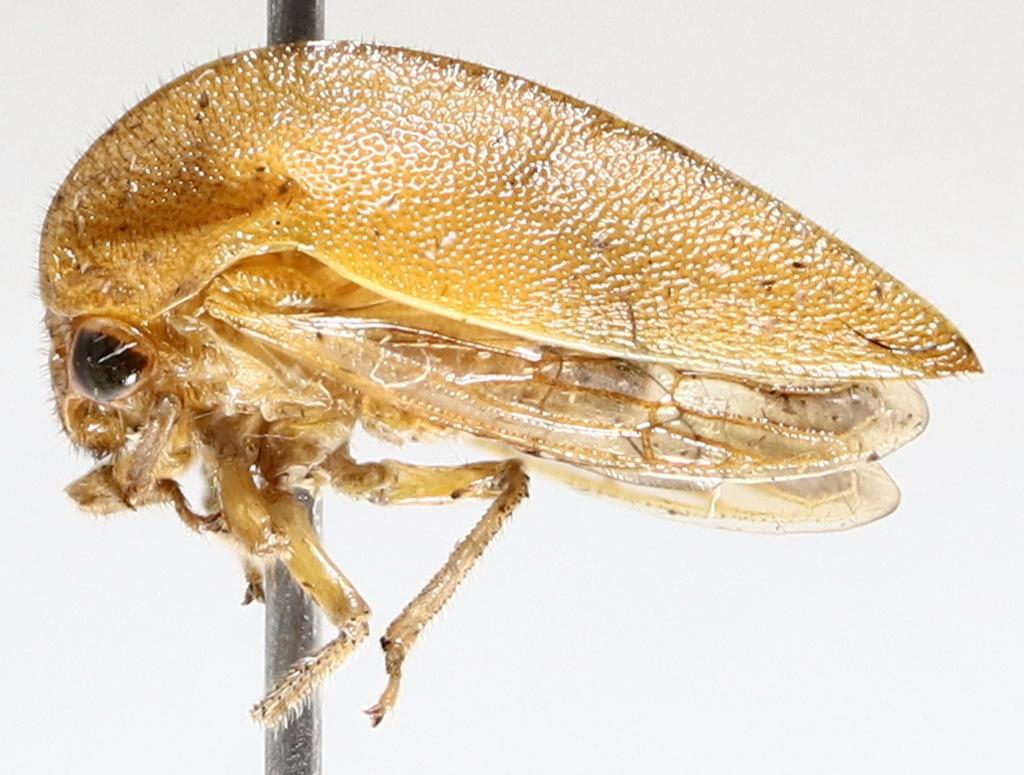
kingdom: Animalia
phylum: Arthropoda
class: Insecta
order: Diptera
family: Dolichopodidae
